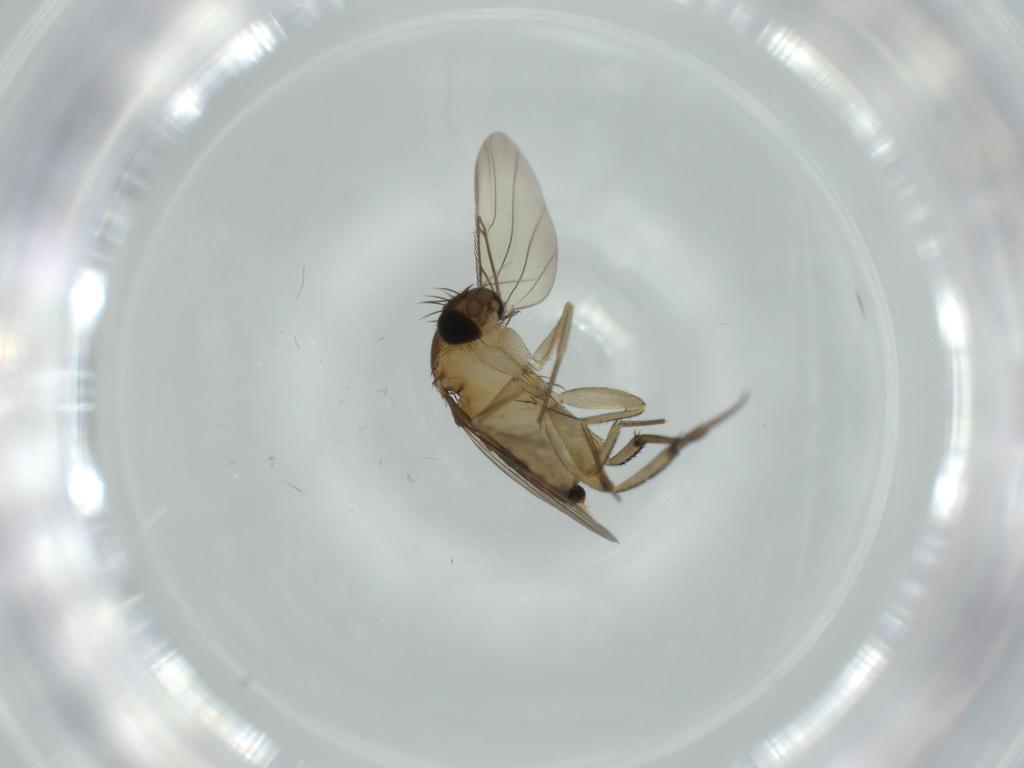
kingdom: Animalia
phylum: Arthropoda
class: Insecta
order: Diptera
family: Phoridae
